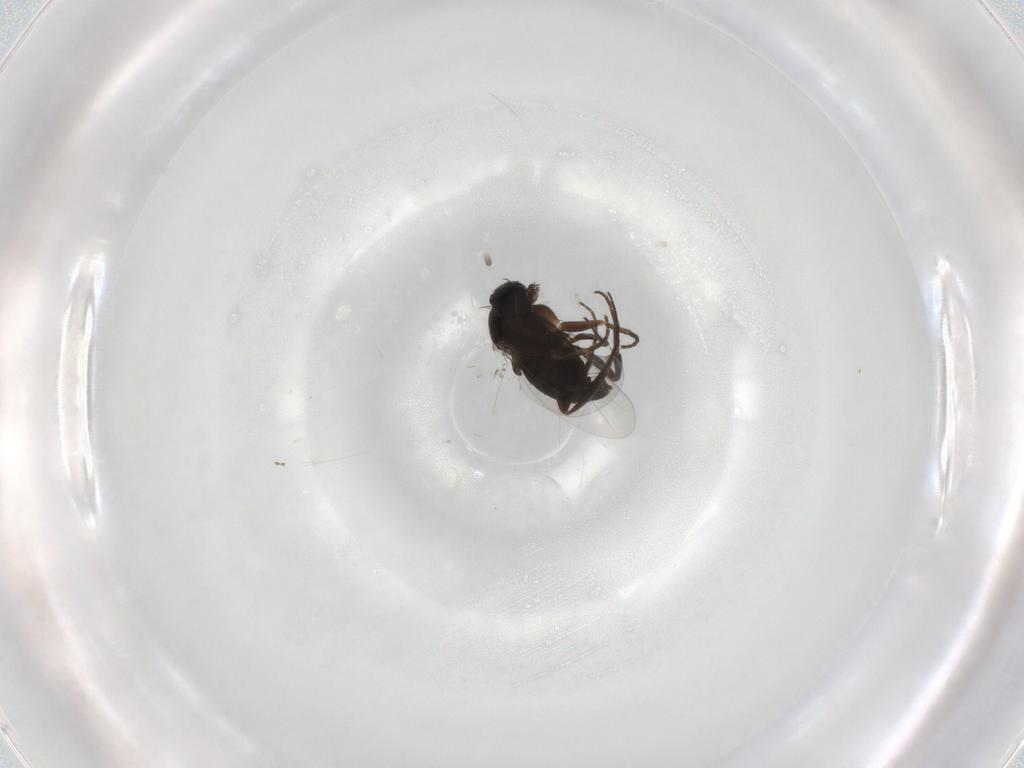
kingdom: Animalia
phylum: Arthropoda
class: Insecta
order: Diptera
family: Phoridae
